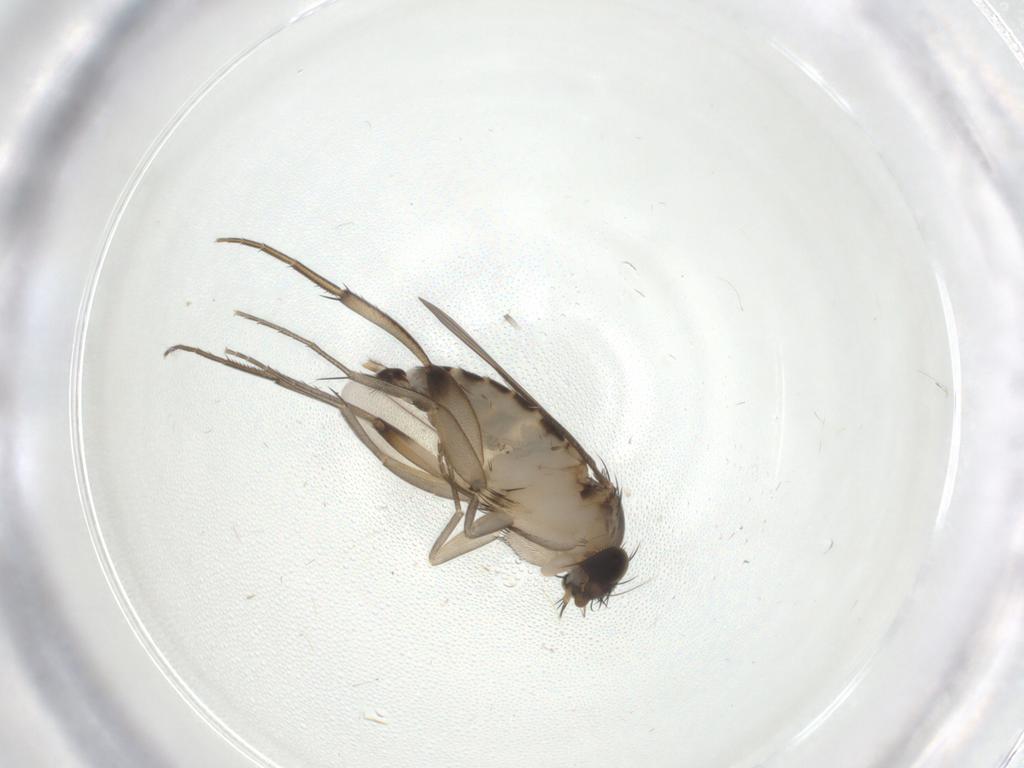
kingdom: Animalia
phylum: Arthropoda
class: Insecta
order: Diptera
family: Phoridae
